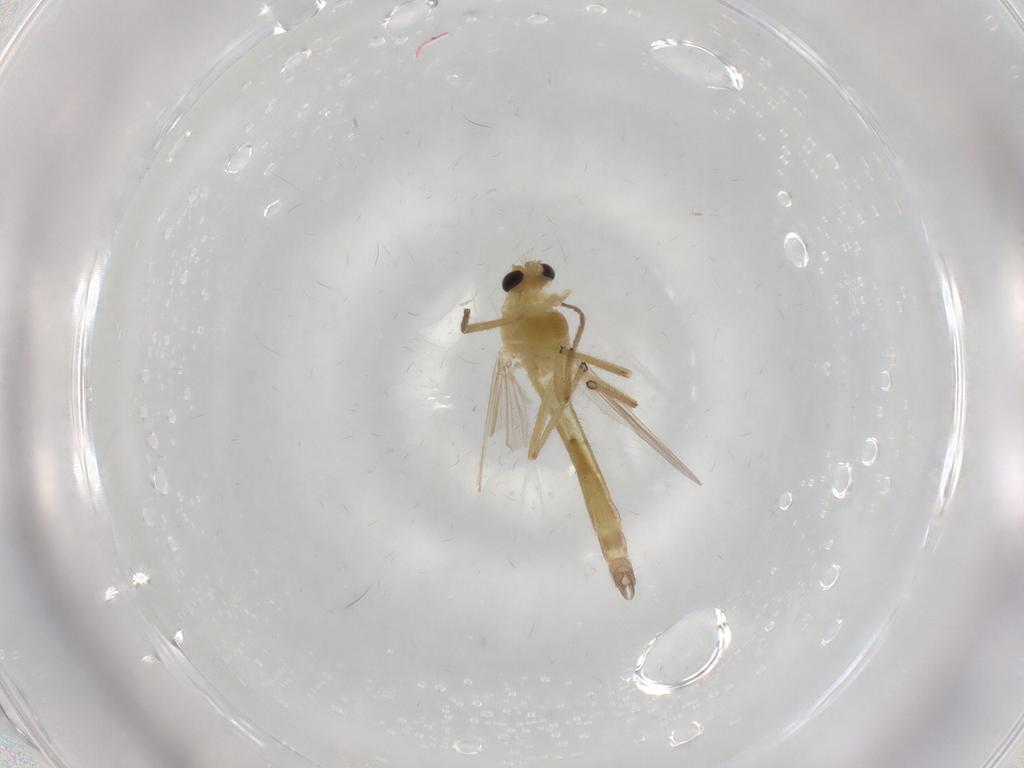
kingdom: Animalia
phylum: Arthropoda
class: Insecta
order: Diptera
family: Chironomidae
